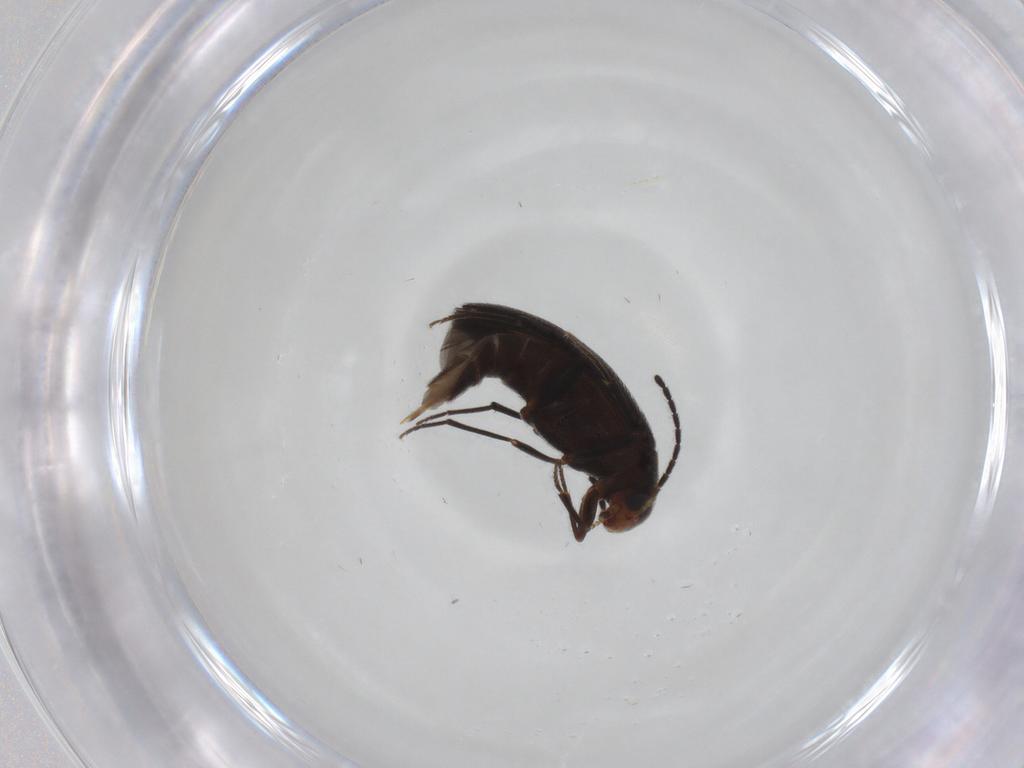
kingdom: Animalia
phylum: Arthropoda
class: Insecta
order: Coleoptera
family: Melandryidae
